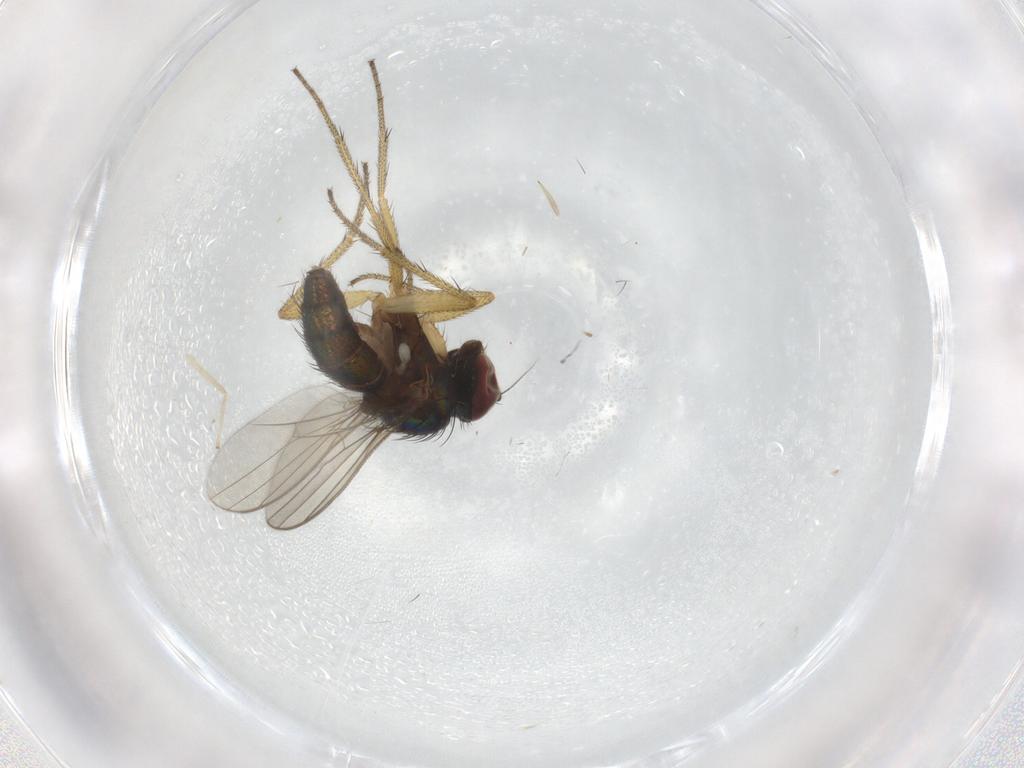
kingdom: Animalia
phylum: Arthropoda
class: Insecta
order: Diptera
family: Dolichopodidae
